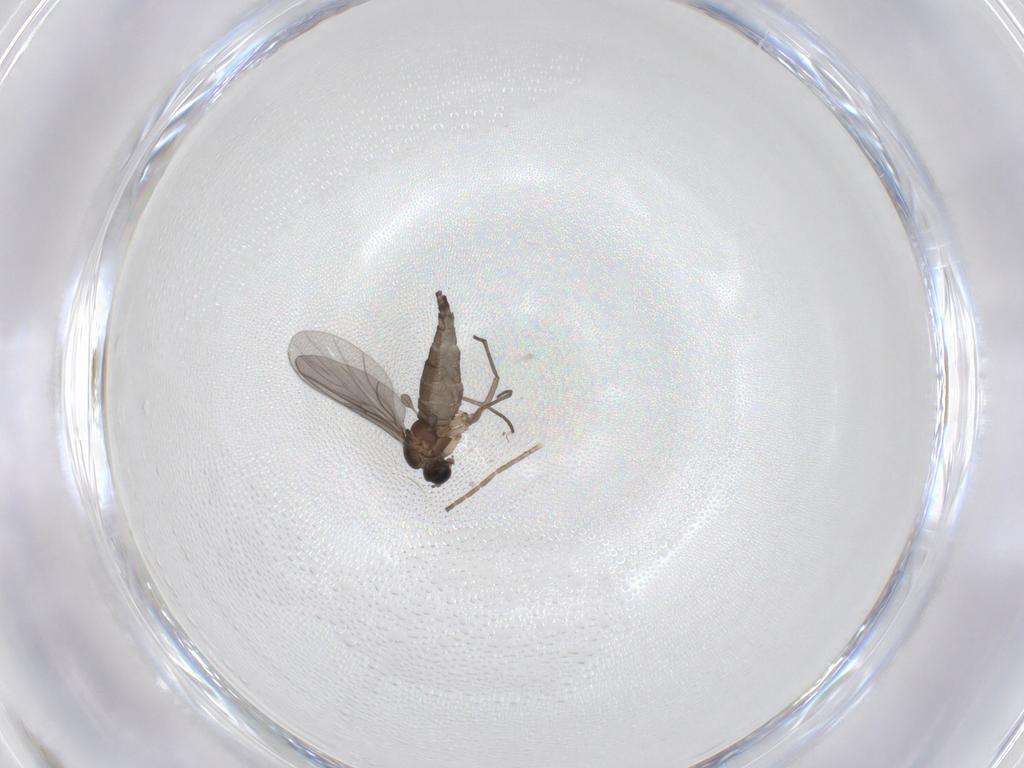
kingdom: Animalia
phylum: Arthropoda
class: Insecta
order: Diptera
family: Sciaridae
